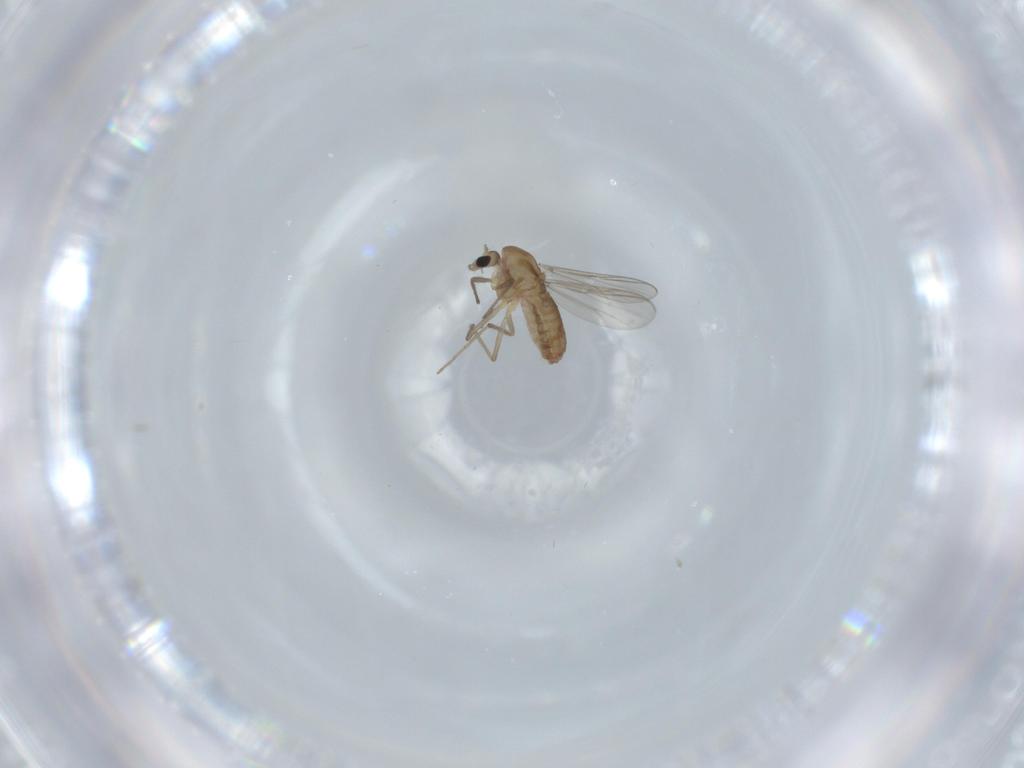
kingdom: Animalia
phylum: Arthropoda
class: Insecta
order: Diptera
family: Chironomidae
